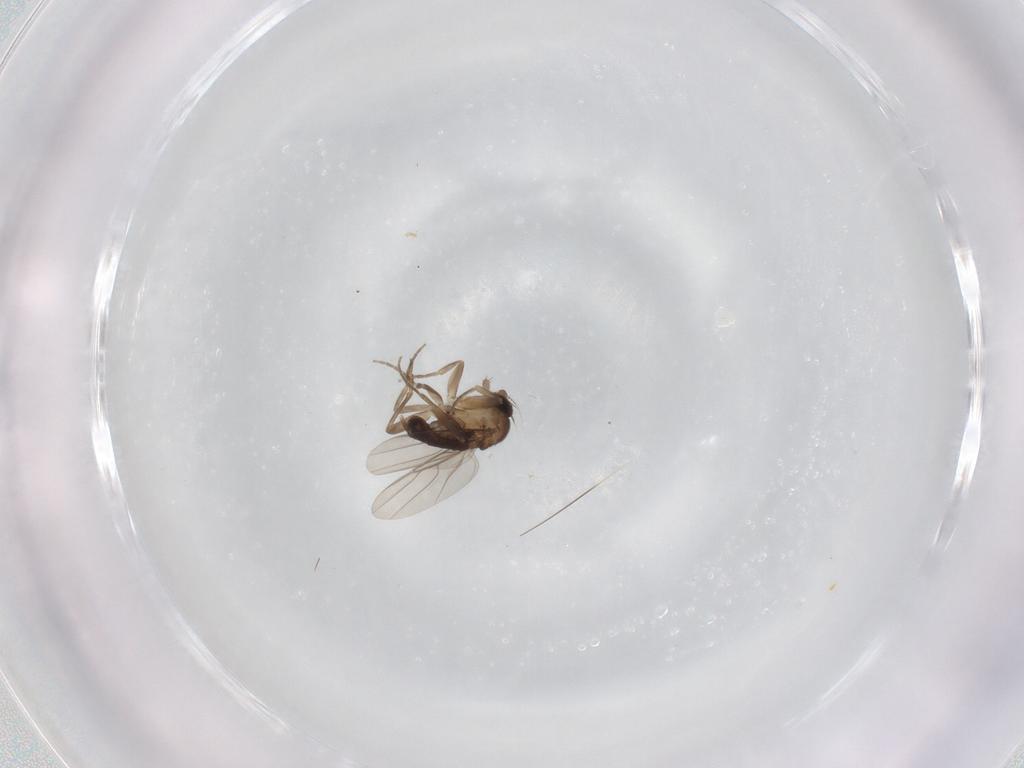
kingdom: Animalia
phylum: Arthropoda
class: Insecta
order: Diptera
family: Phoridae
